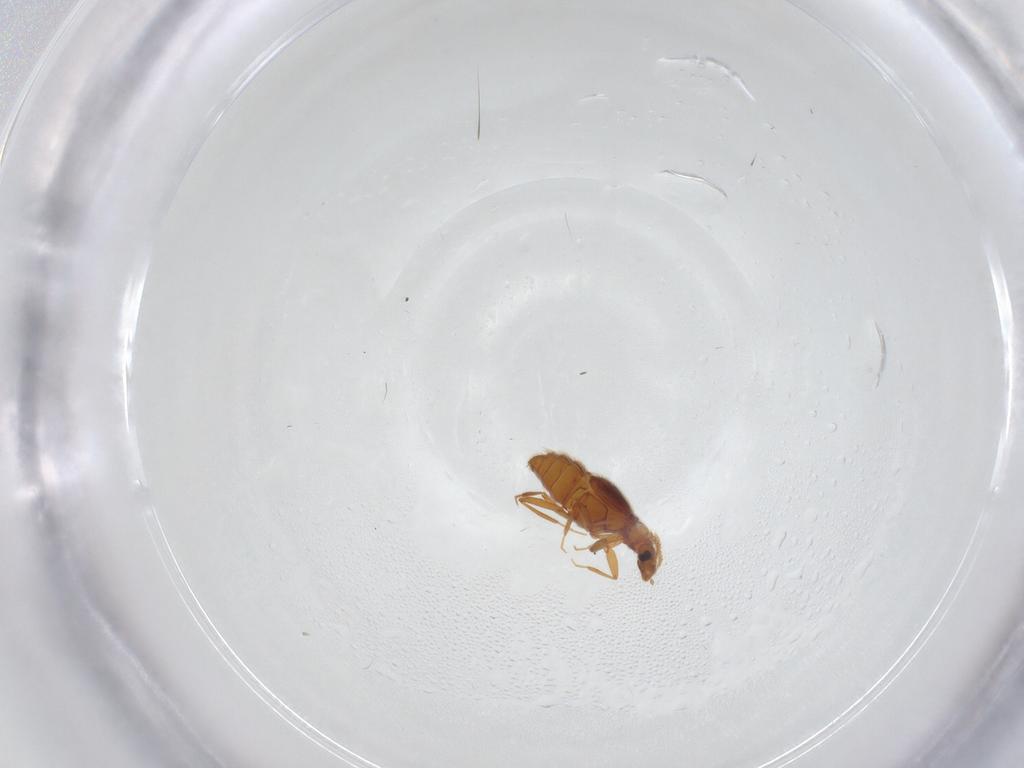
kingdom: Animalia
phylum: Arthropoda
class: Insecta
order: Coleoptera
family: Staphylinidae
